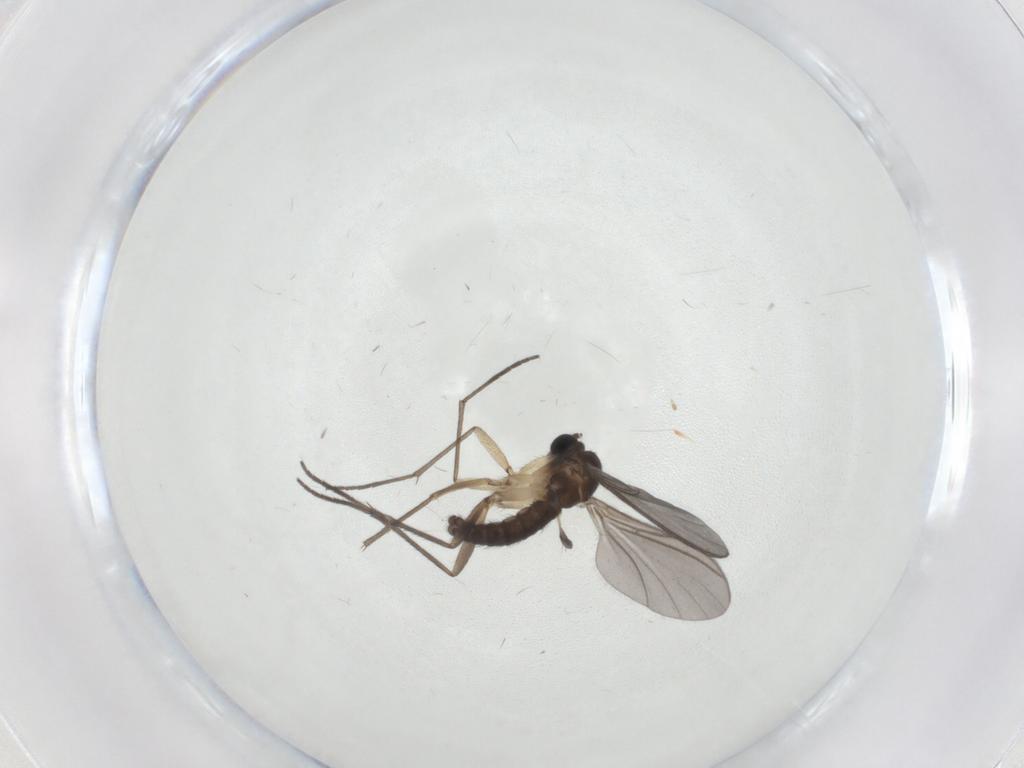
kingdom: Animalia
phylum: Arthropoda
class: Insecta
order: Diptera
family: Sciaridae
